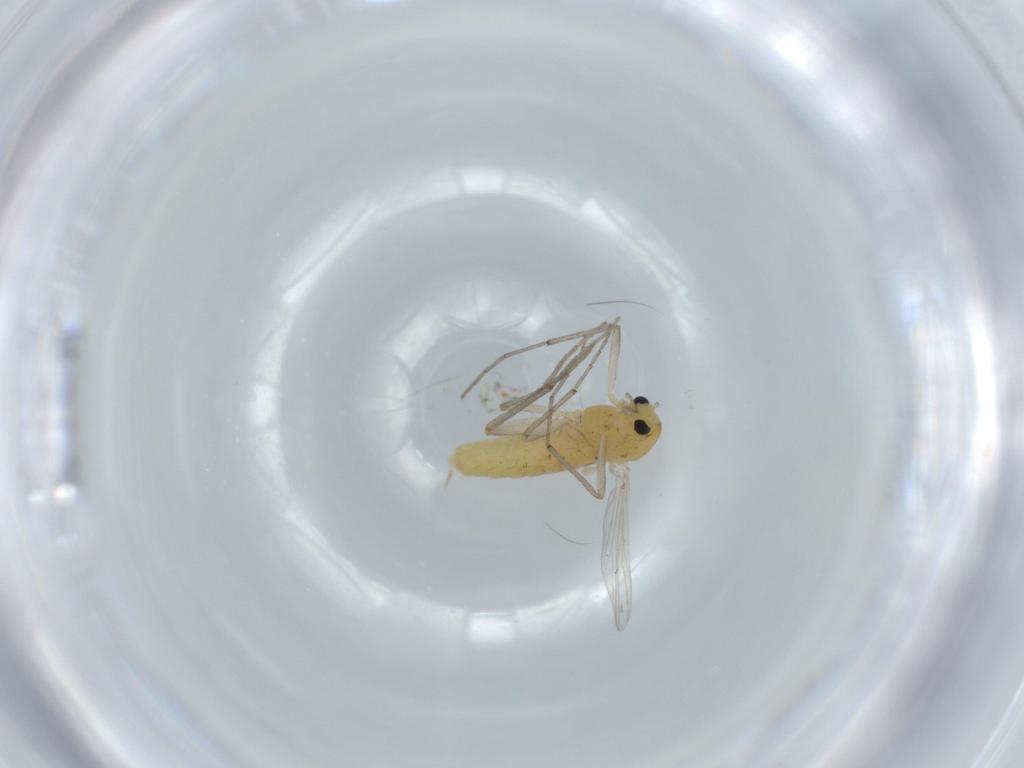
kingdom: Animalia
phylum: Arthropoda
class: Insecta
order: Diptera
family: Chironomidae
